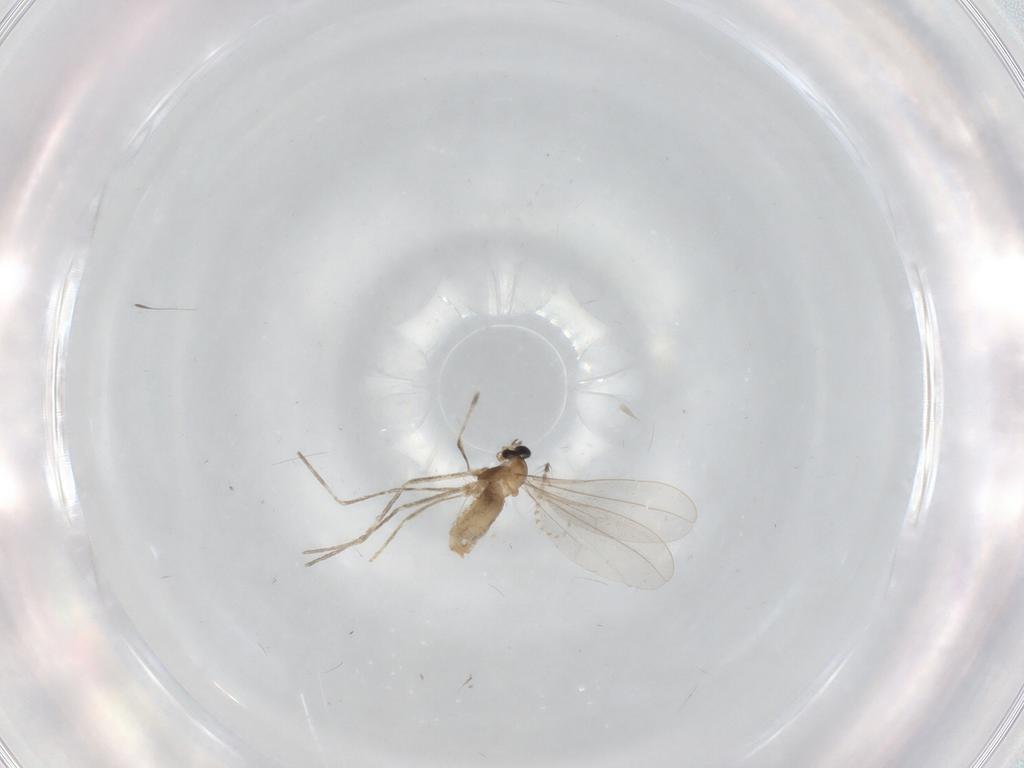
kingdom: Animalia
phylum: Arthropoda
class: Insecta
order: Diptera
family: Cecidomyiidae
